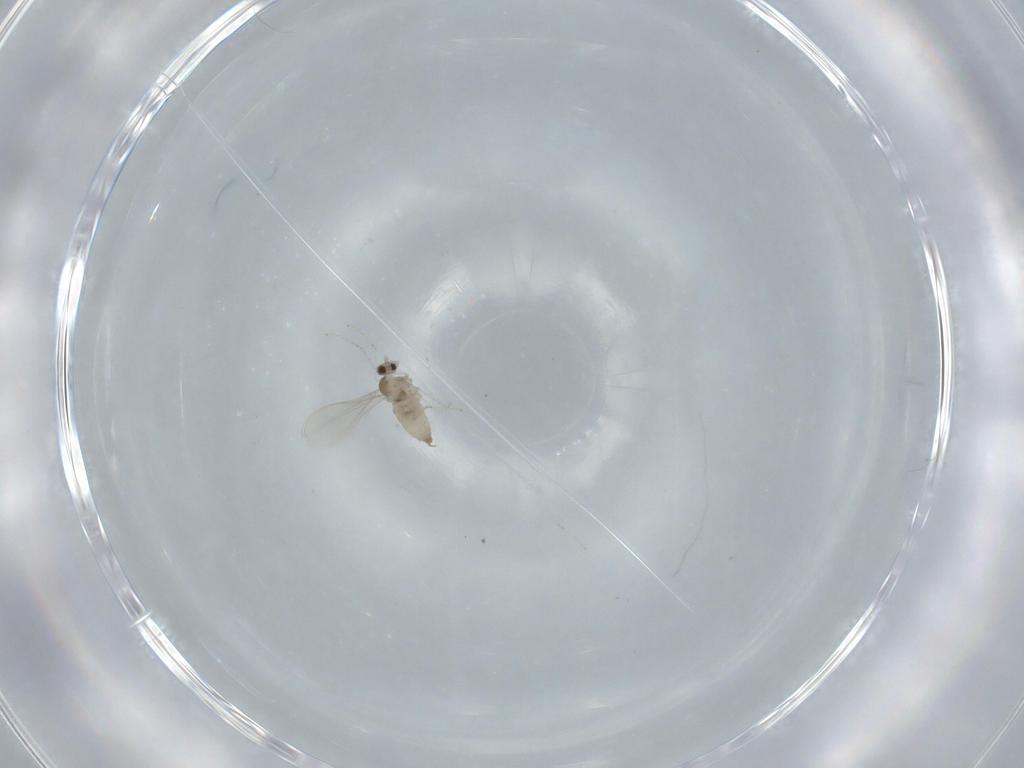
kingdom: Animalia
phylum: Arthropoda
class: Insecta
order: Diptera
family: Cecidomyiidae
